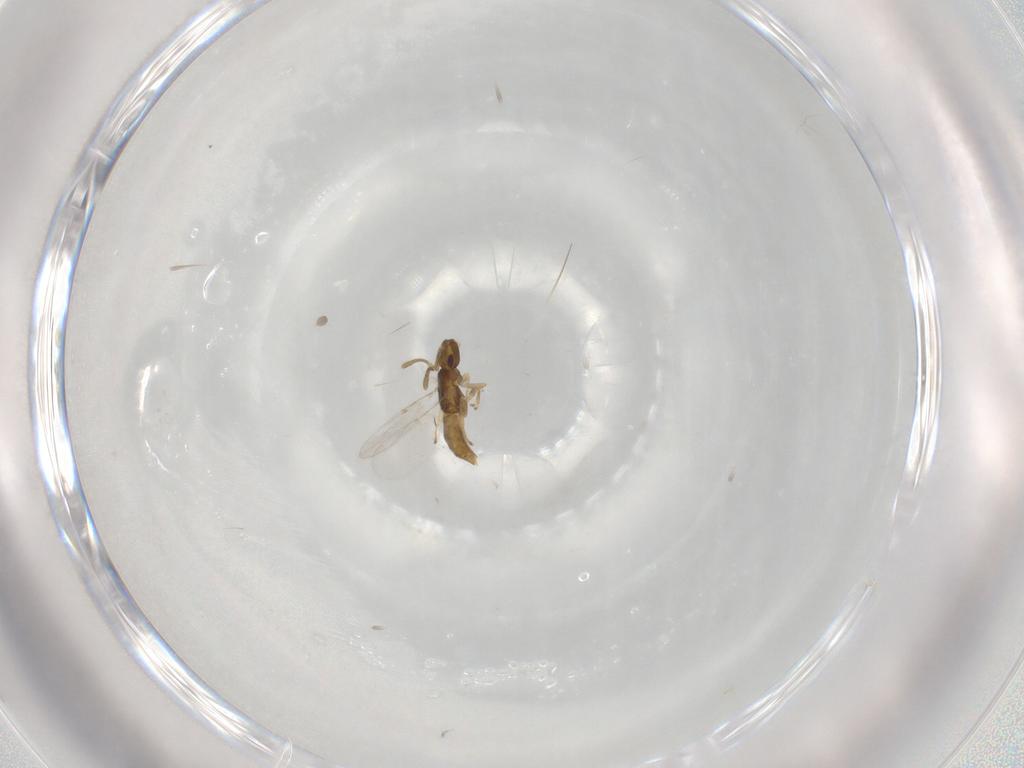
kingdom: Animalia
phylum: Arthropoda
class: Insecta
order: Hymenoptera
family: Encyrtidae
